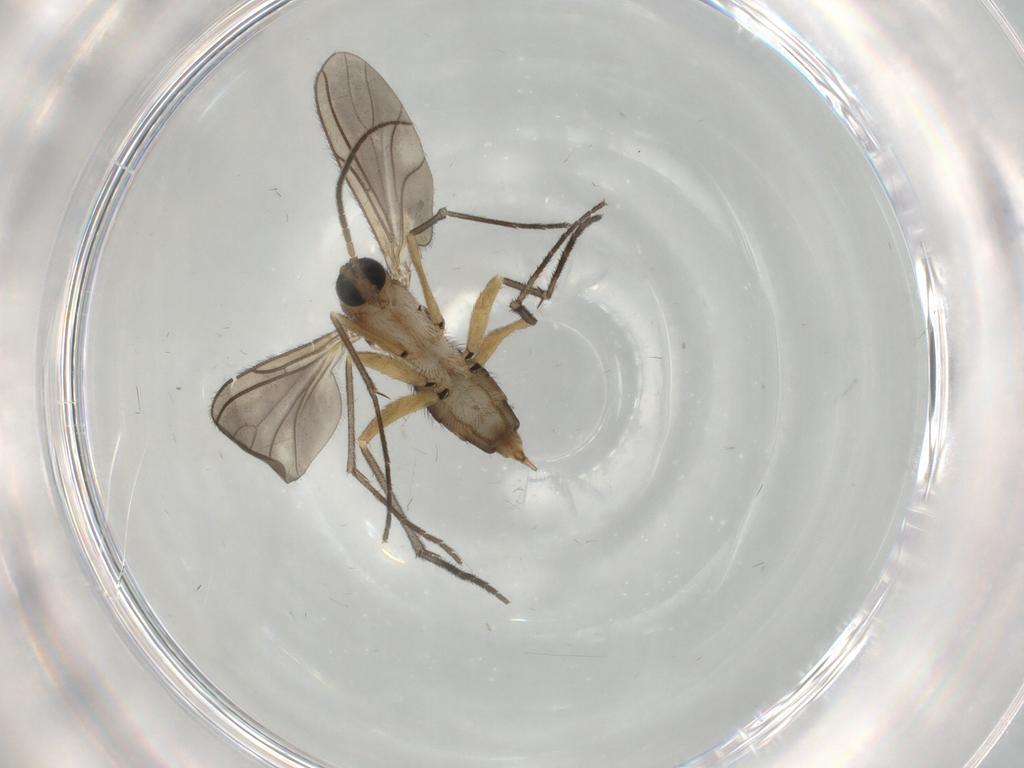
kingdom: Animalia
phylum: Arthropoda
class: Insecta
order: Diptera
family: Sciaridae
